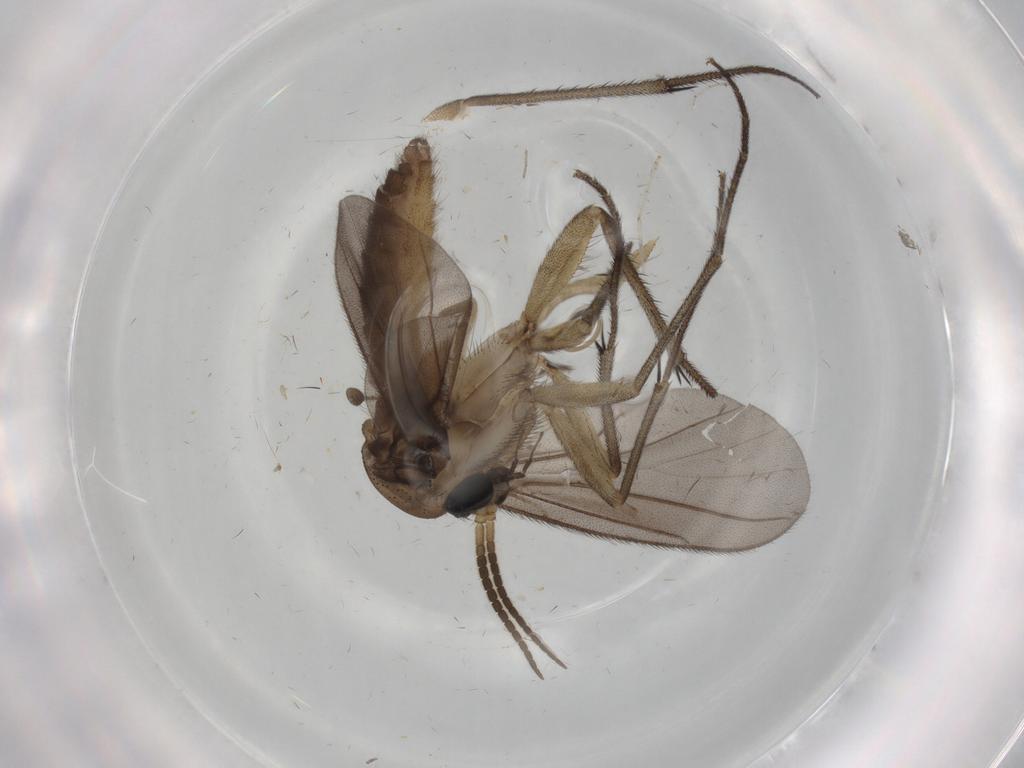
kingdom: Animalia
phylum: Arthropoda
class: Insecta
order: Diptera
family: Diadocidiidae
